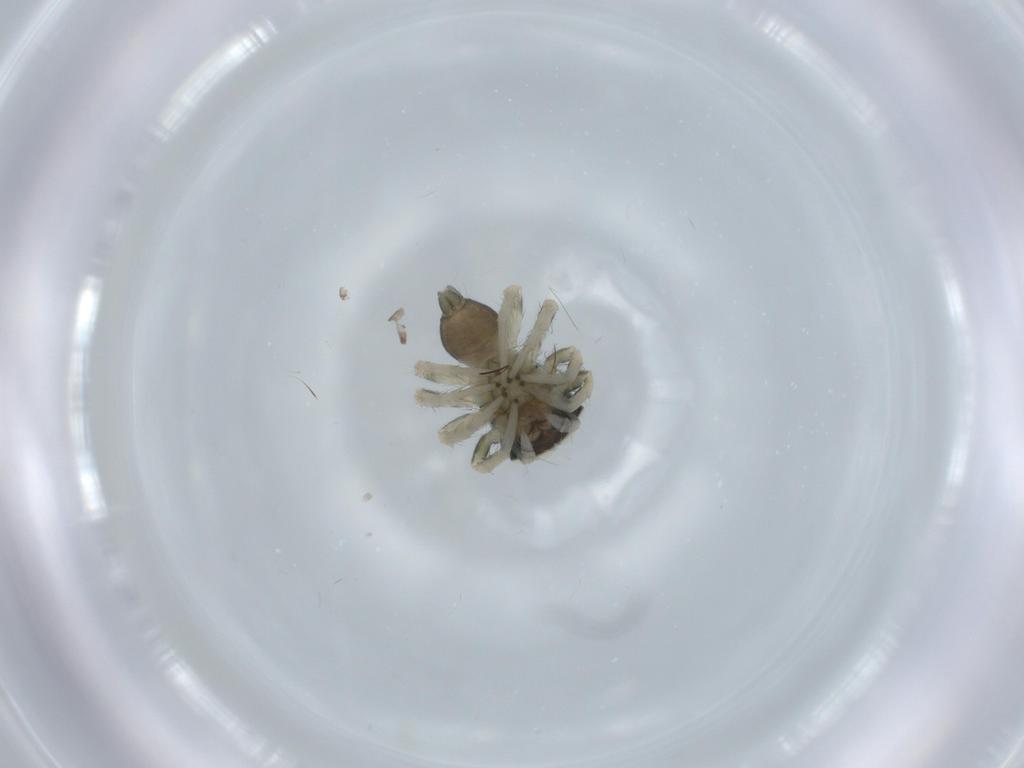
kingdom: Animalia
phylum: Arthropoda
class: Arachnida
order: Araneae
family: Salticidae
